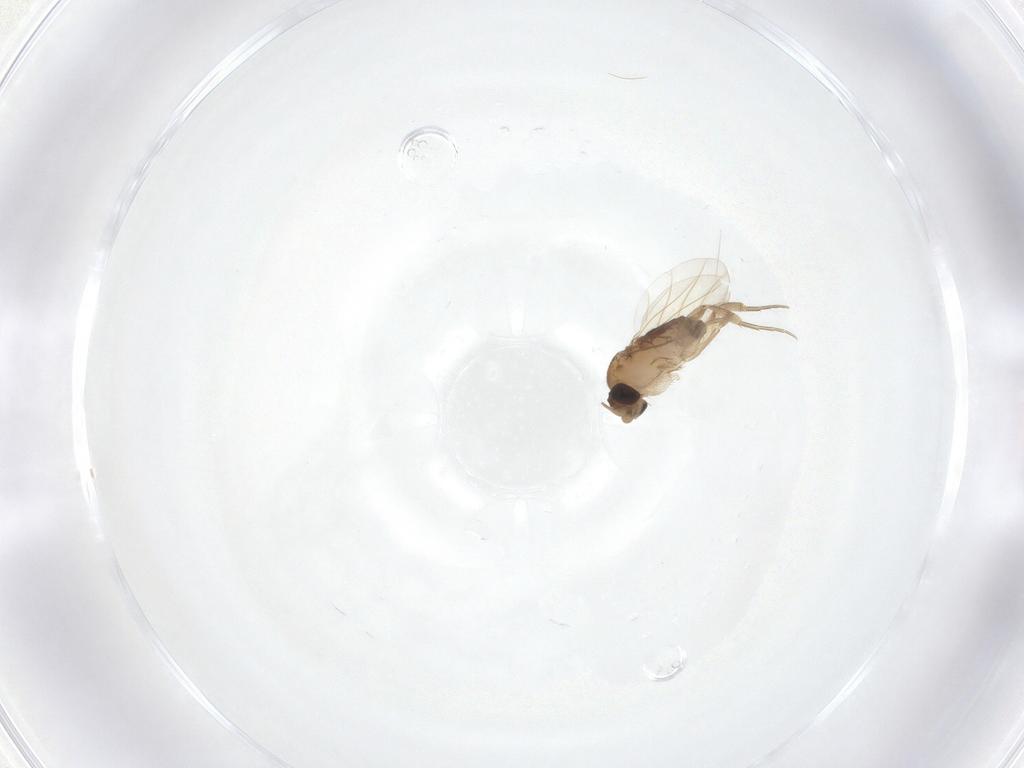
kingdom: Animalia
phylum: Arthropoda
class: Insecta
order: Diptera
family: Phoridae
